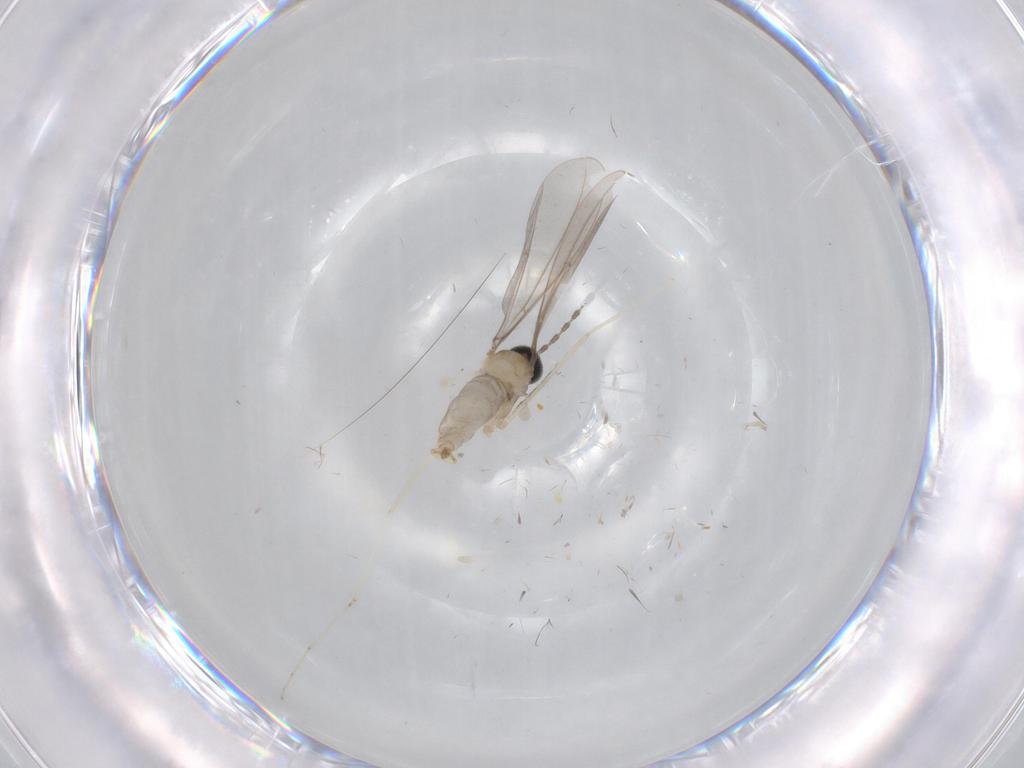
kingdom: Animalia
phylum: Arthropoda
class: Insecta
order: Diptera
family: Cecidomyiidae
